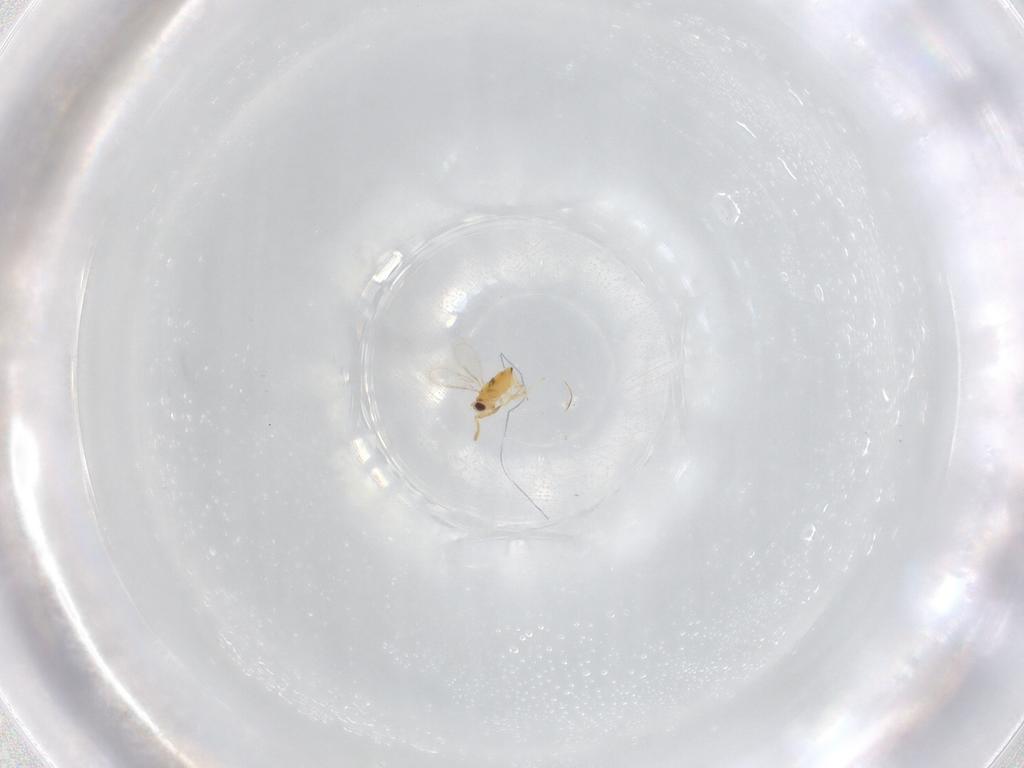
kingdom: Animalia
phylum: Arthropoda
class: Insecta
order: Hymenoptera
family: Aphelinidae
